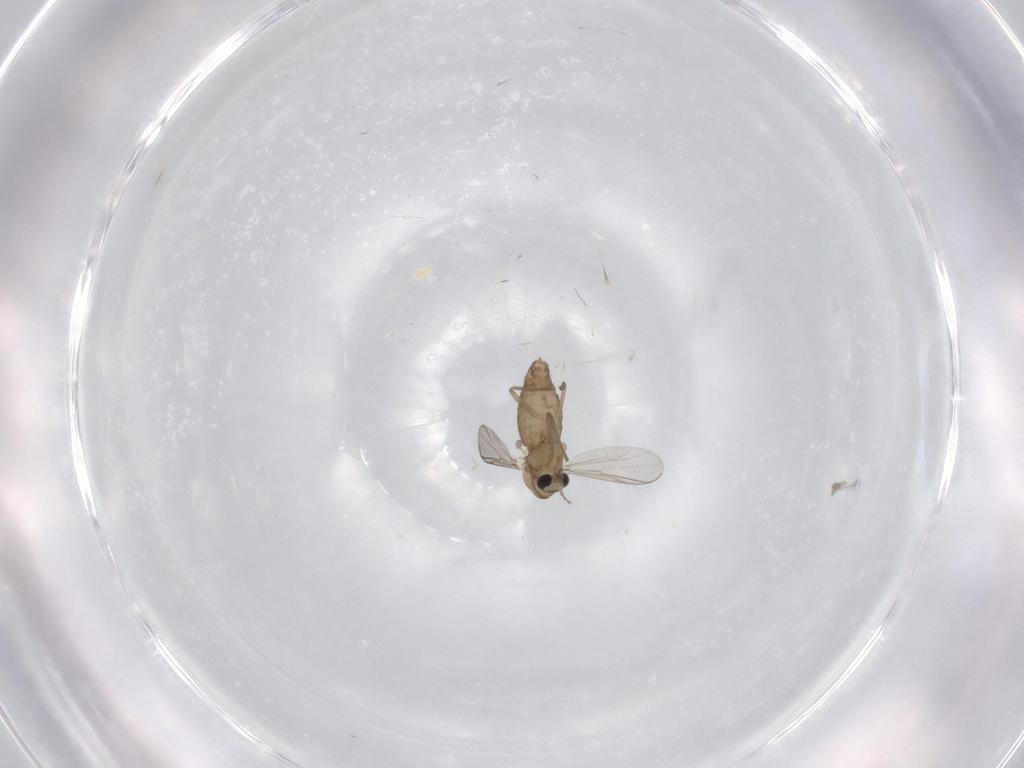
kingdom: Animalia
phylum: Arthropoda
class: Insecta
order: Diptera
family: Chironomidae
